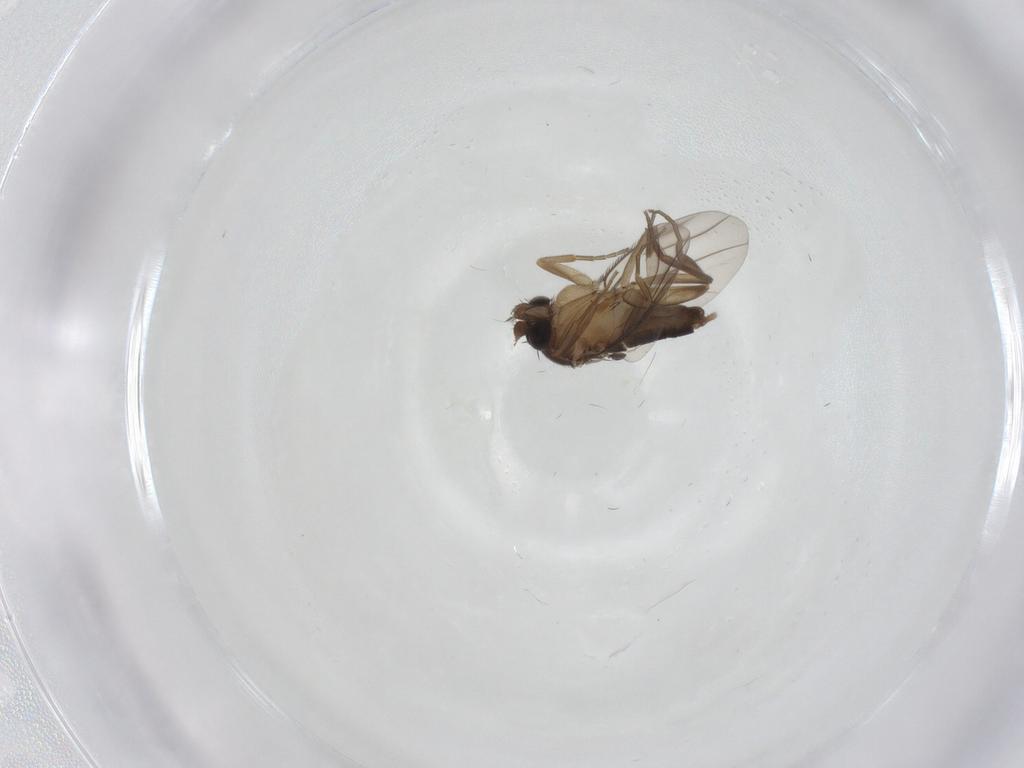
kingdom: Animalia
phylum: Arthropoda
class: Insecta
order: Diptera
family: Phoridae
